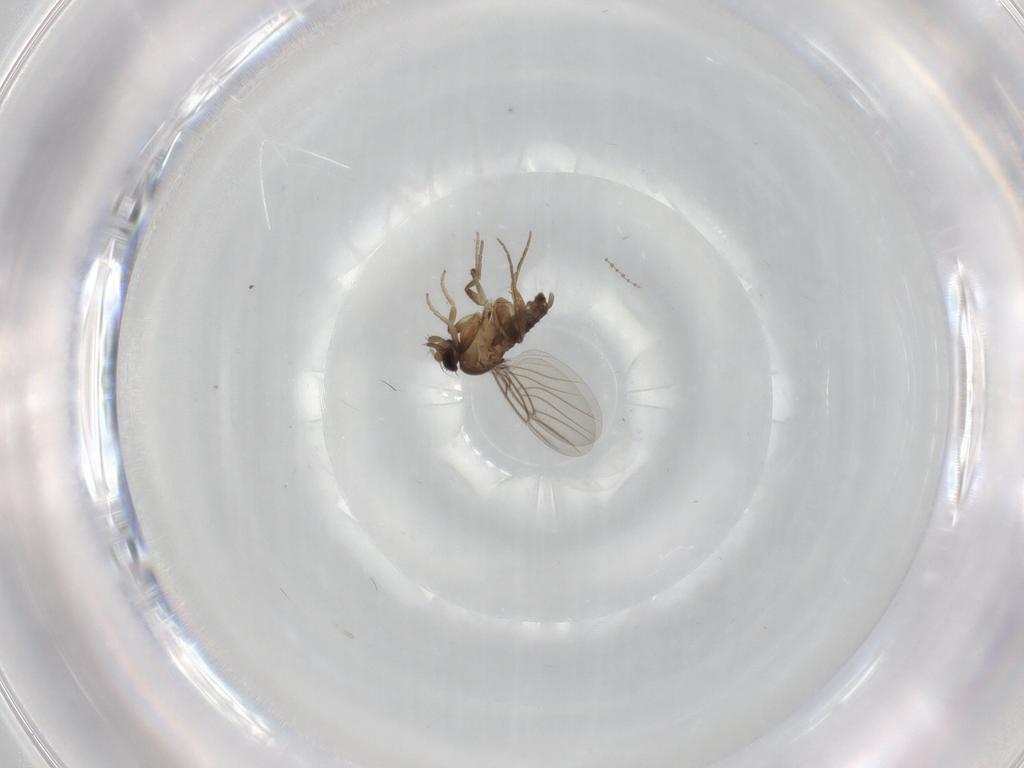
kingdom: Animalia
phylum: Arthropoda
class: Insecta
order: Diptera
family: Phoridae
